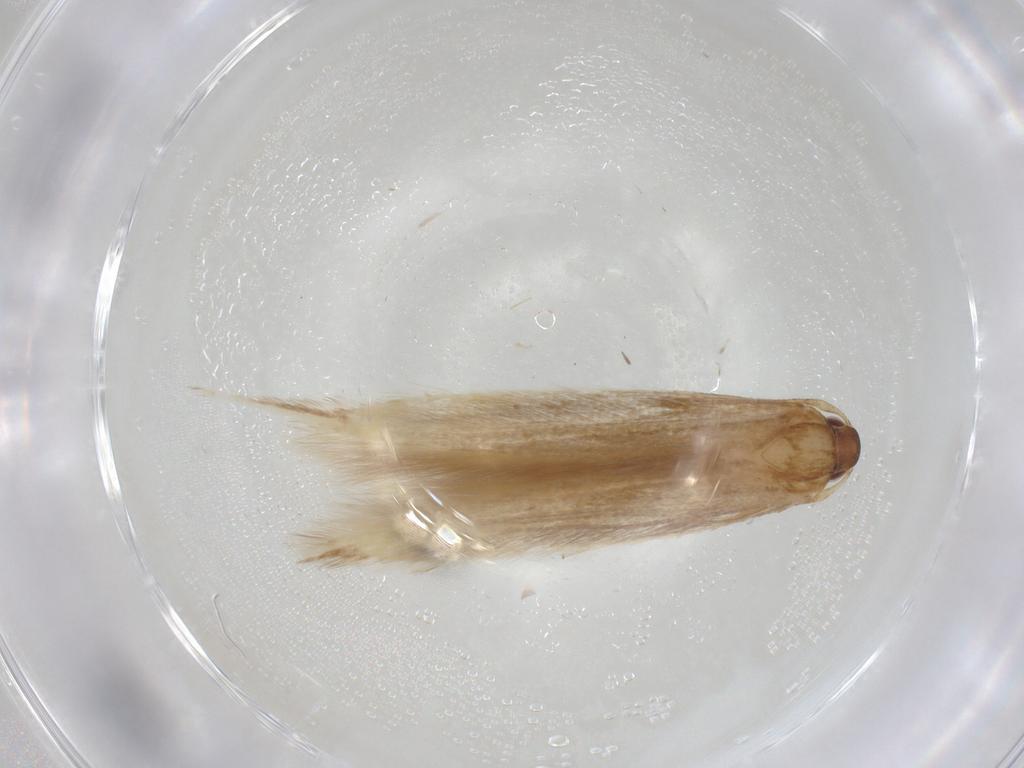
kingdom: Animalia
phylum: Arthropoda
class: Insecta
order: Lepidoptera
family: Cosmopterigidae
